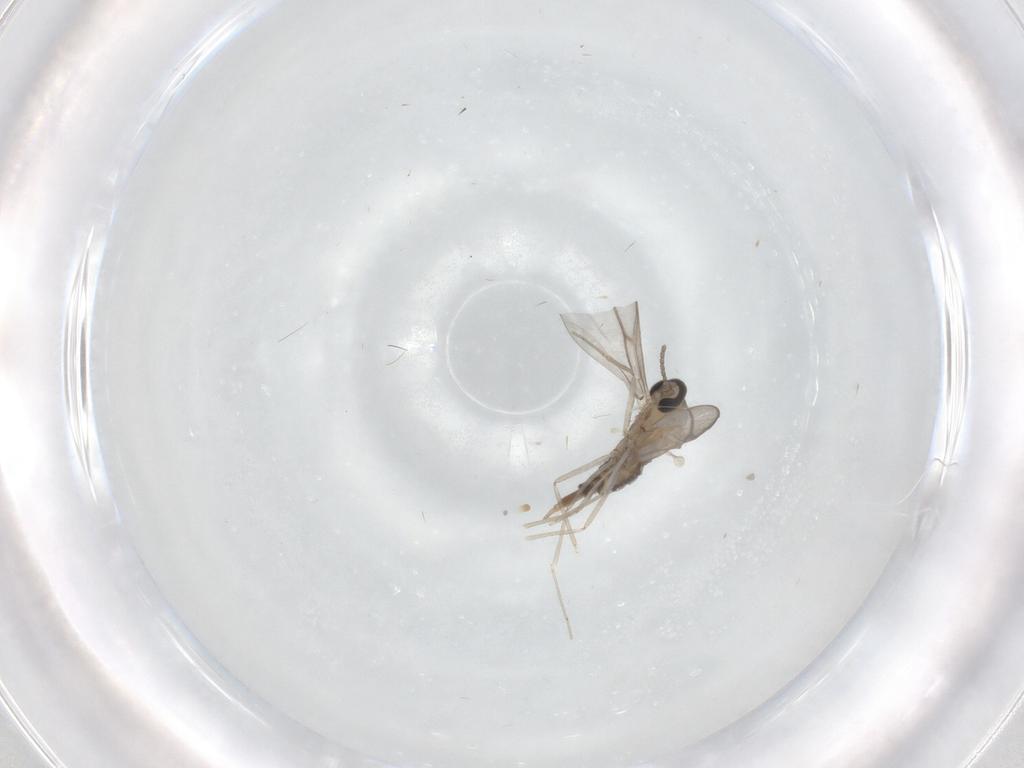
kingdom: Animalia
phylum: Arthropoda
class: Insecta
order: Diptera
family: Cecidomyiidae
